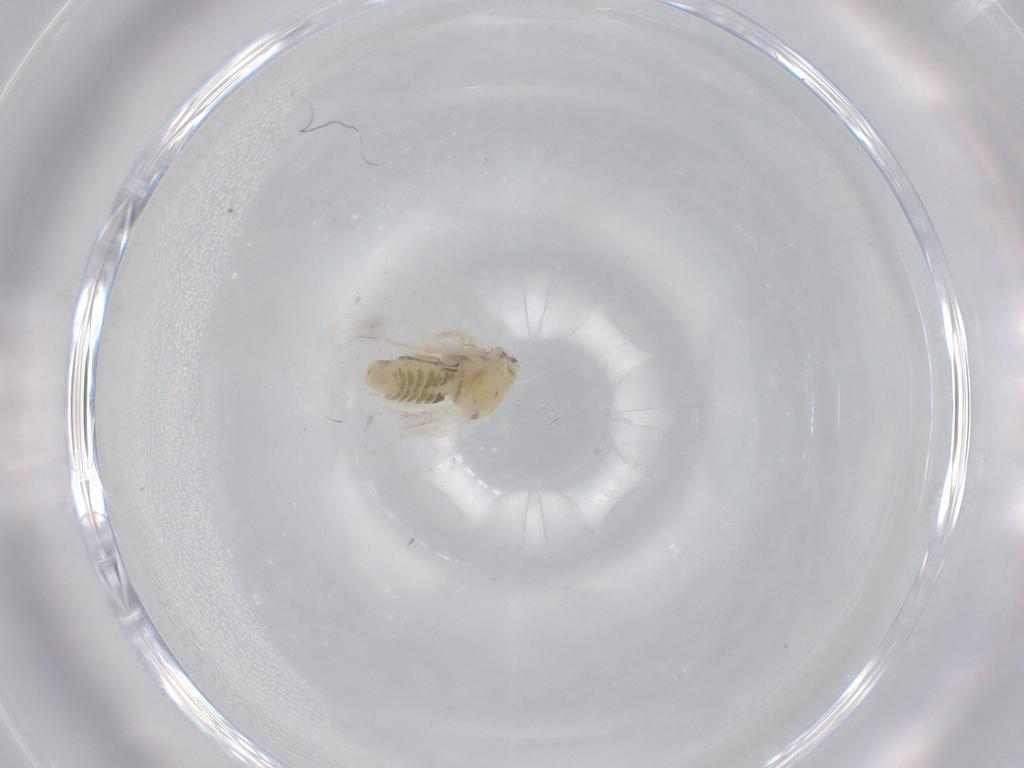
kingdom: Animalia
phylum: Arthropoda
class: Insecta
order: Hemiptera
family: Aleyrodidae
